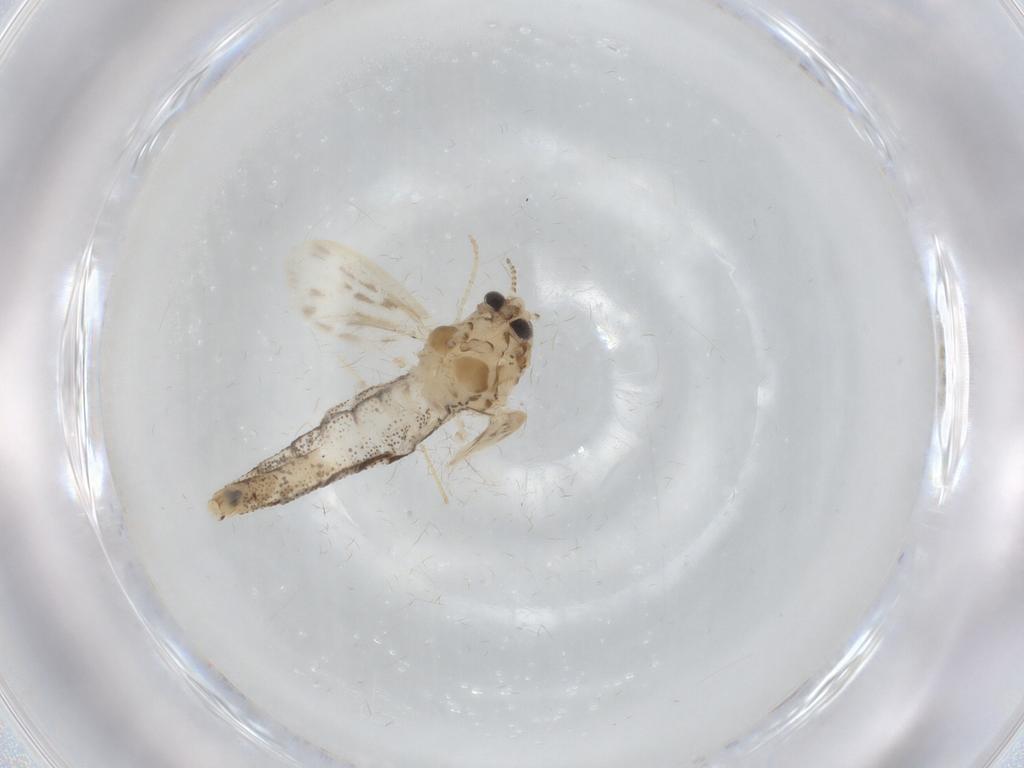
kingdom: Animalia
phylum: Arthropoda
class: Insecta
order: Diptera
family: Chaoboridae
